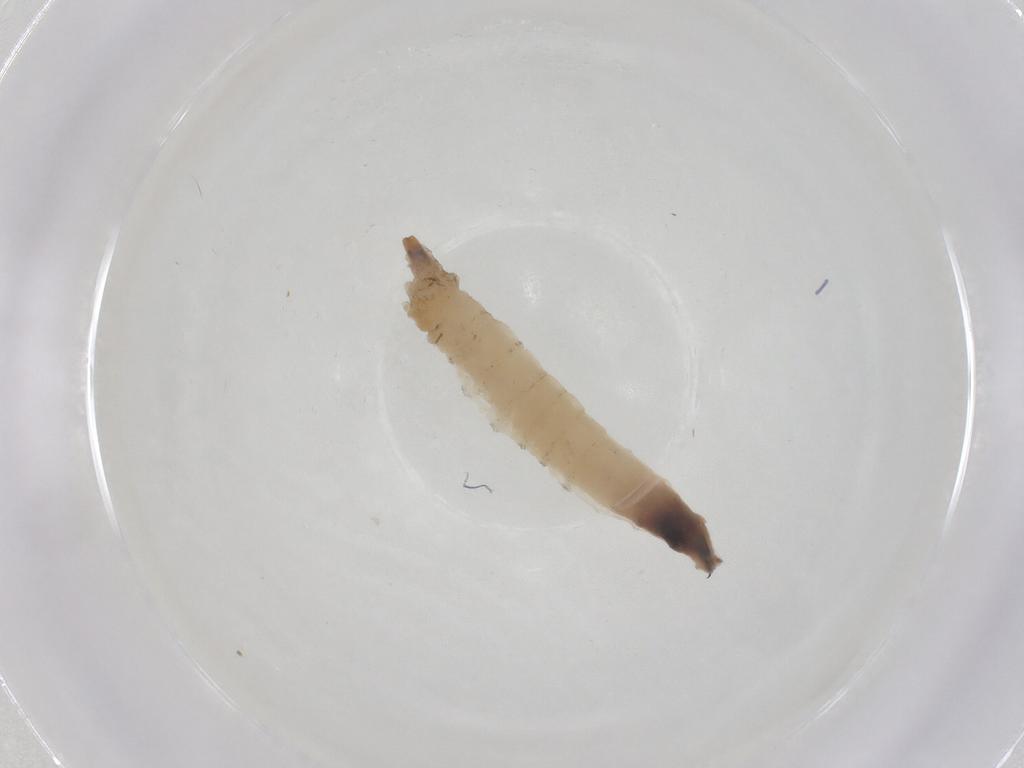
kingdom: Animalia
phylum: Arthropoda
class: Insecta
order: Diptera
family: Drosophilidae
